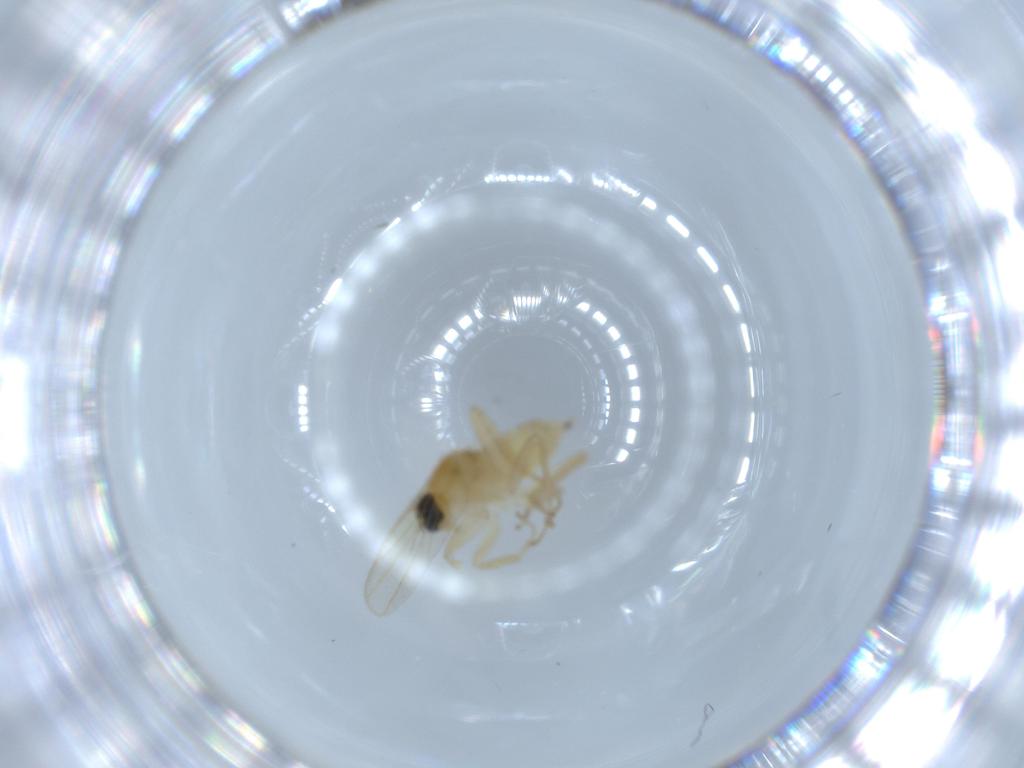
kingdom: Animalia
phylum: Arthropoda
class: Insecta
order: Diptera
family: Hybotidae
